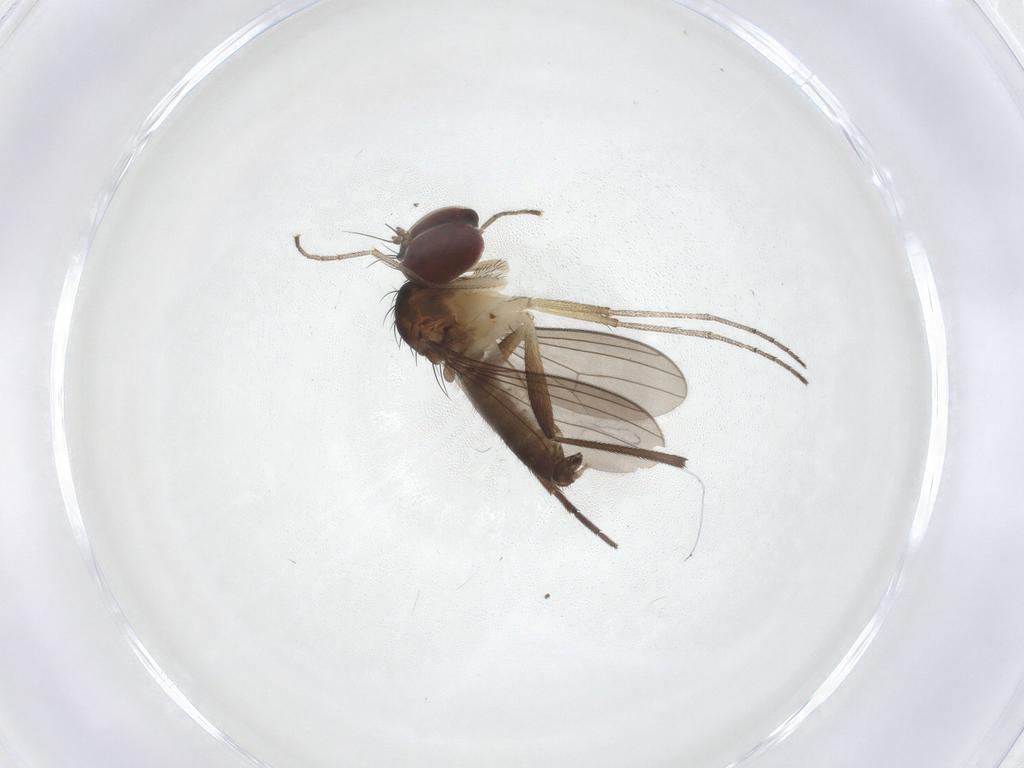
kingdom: Animalia
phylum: Arthropoda
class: Insecta
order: Diptera
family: Dolichopodidae
